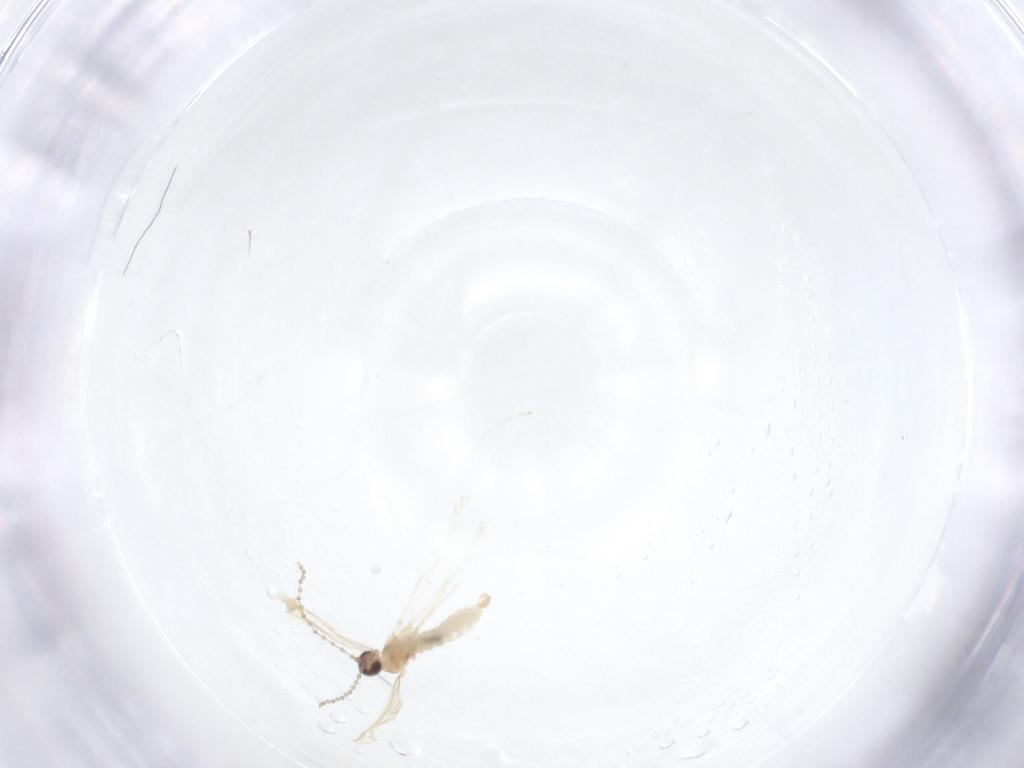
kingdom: Animalia
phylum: Arthropoda
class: Insecta
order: Diptera
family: Cecidomyiidae
